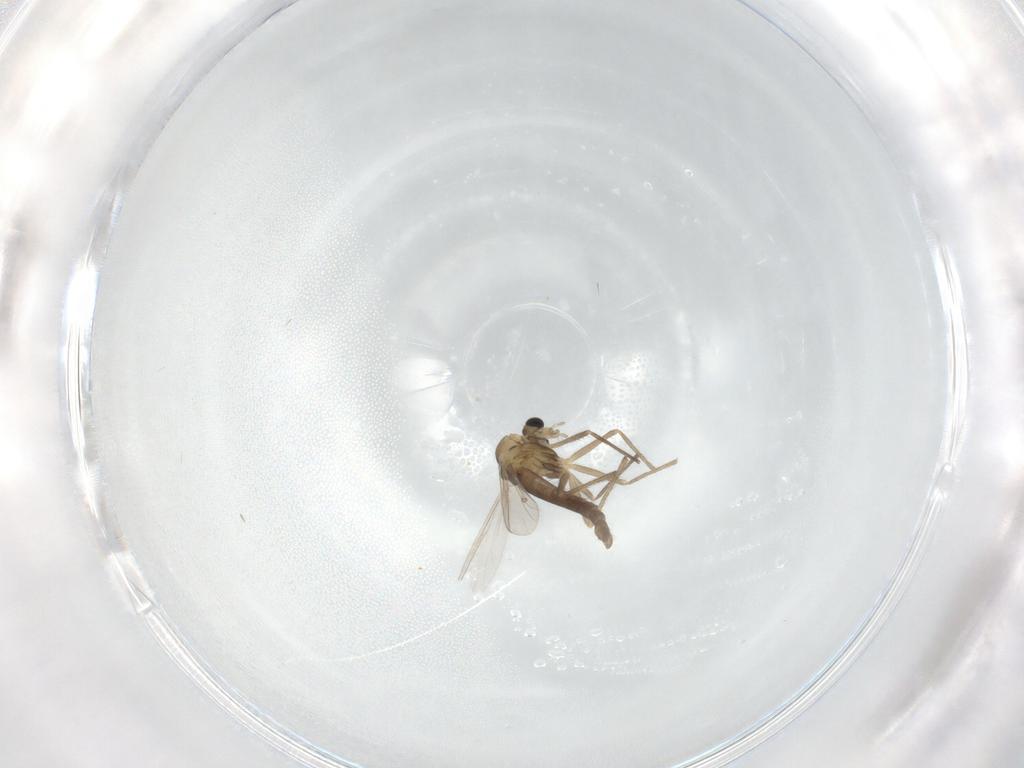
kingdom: Animalia
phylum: Arthropoda
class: Insecta
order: Diptera
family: Chironomidae
